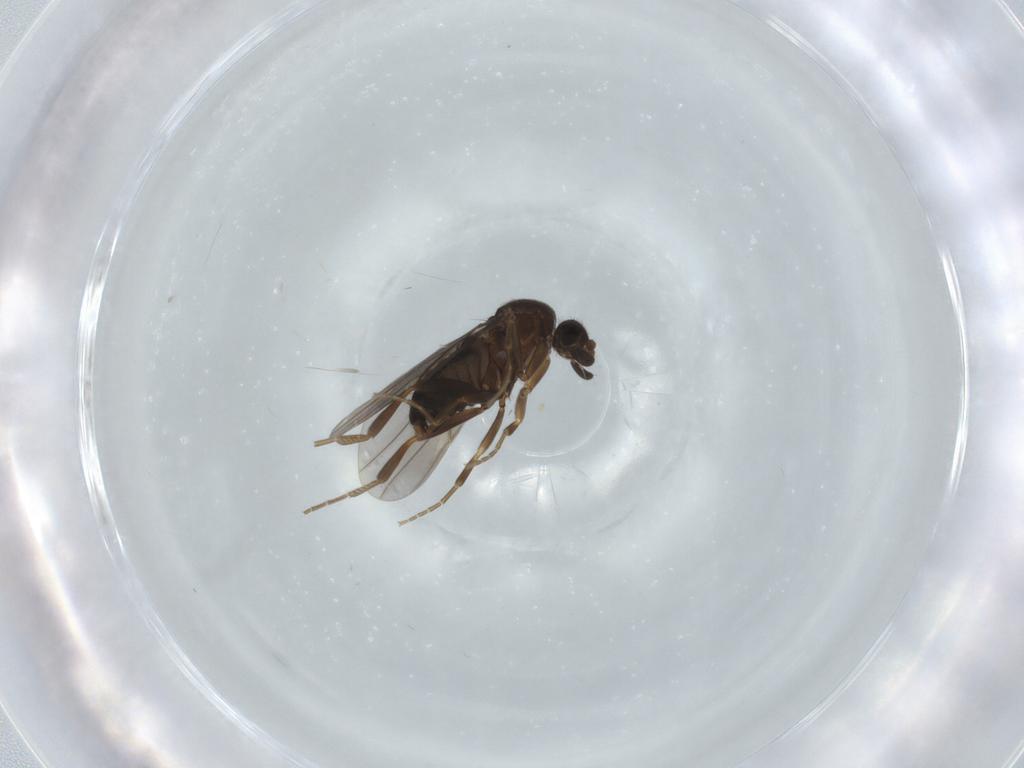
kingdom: Animalia
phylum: Arthropoda
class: Insecta
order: Diptera
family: Phoridae
